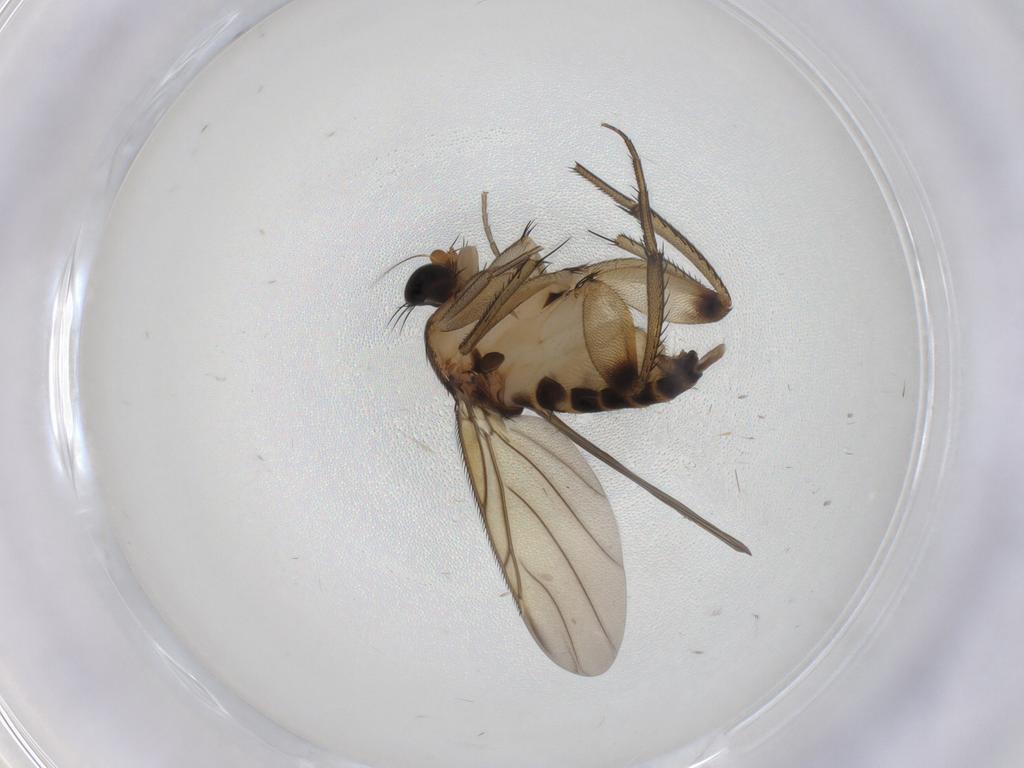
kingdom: Animalia
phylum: Arthropoda
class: Insecta
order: Diptera
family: Phoridae
